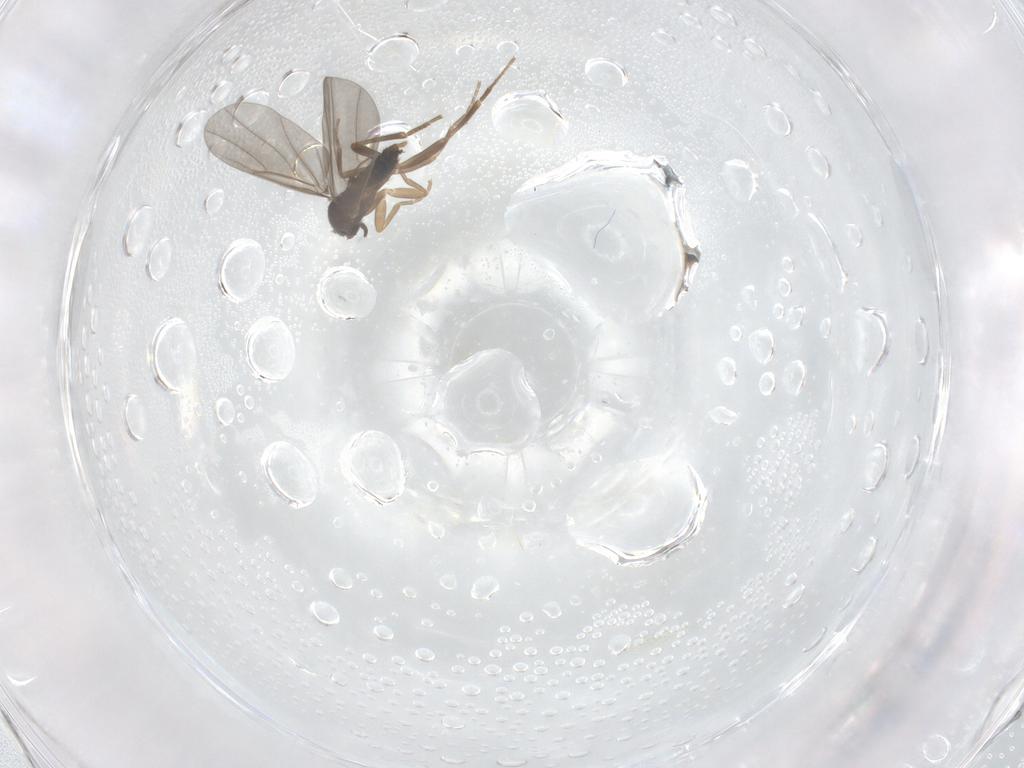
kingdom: Animalia
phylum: Arthropoda
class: Insecta
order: Diptera
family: Phoridae
